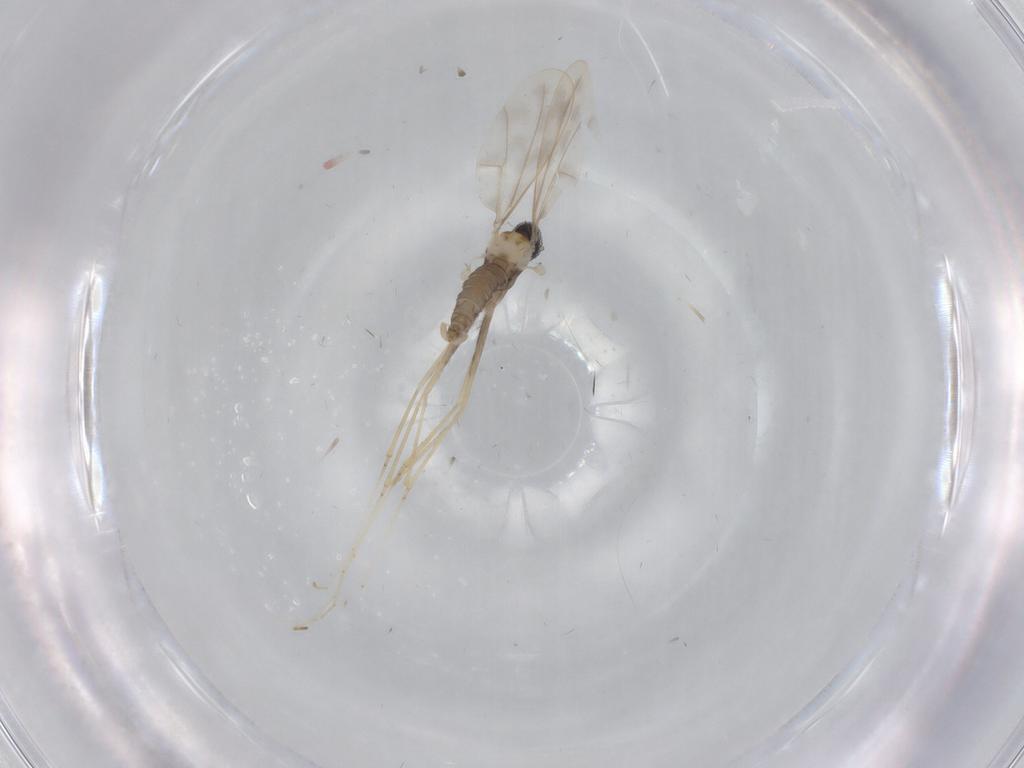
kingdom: Animalia
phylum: Arthropoda
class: Insecta
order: Diptera
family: Cecidomyiidae
